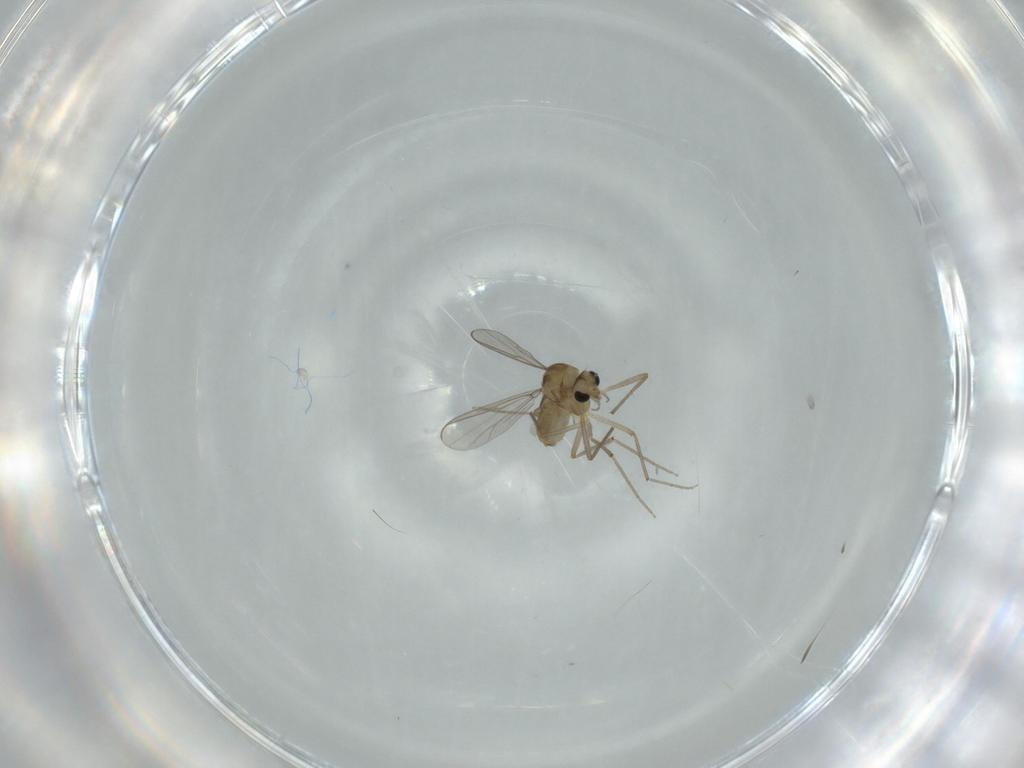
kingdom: Animalia
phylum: Arthropoda
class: Insecta
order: Diptera
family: Chironomidae
